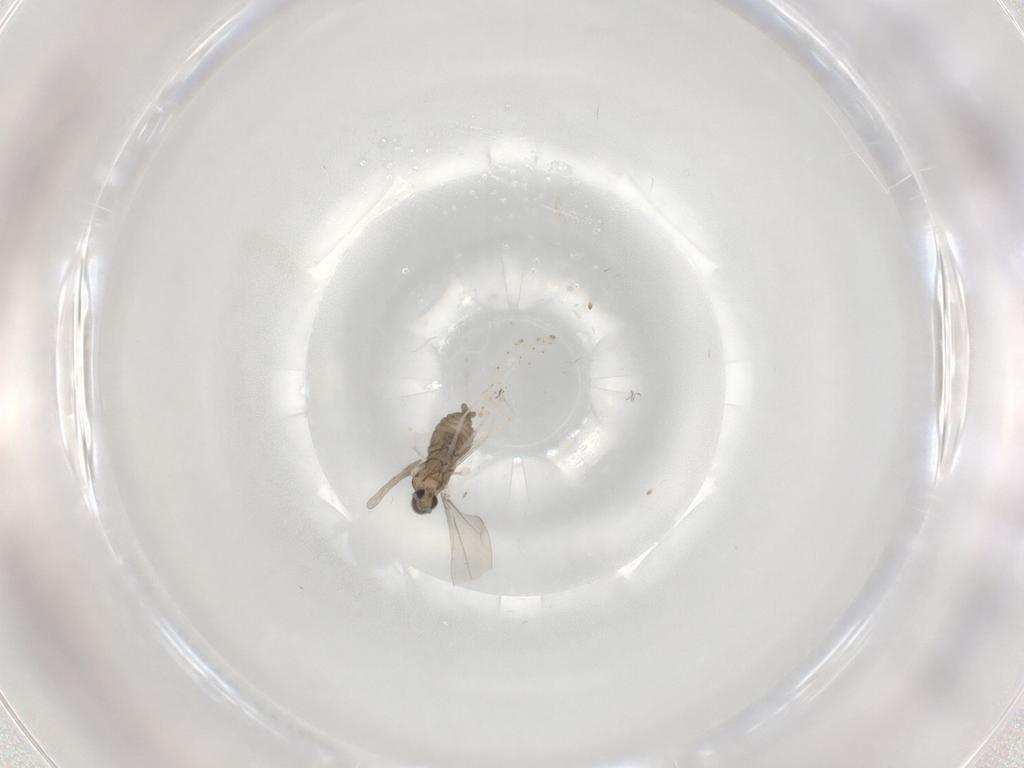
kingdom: Animalia
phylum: Arthropoda
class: Insecta
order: Diptera
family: Cecidomyiidae
